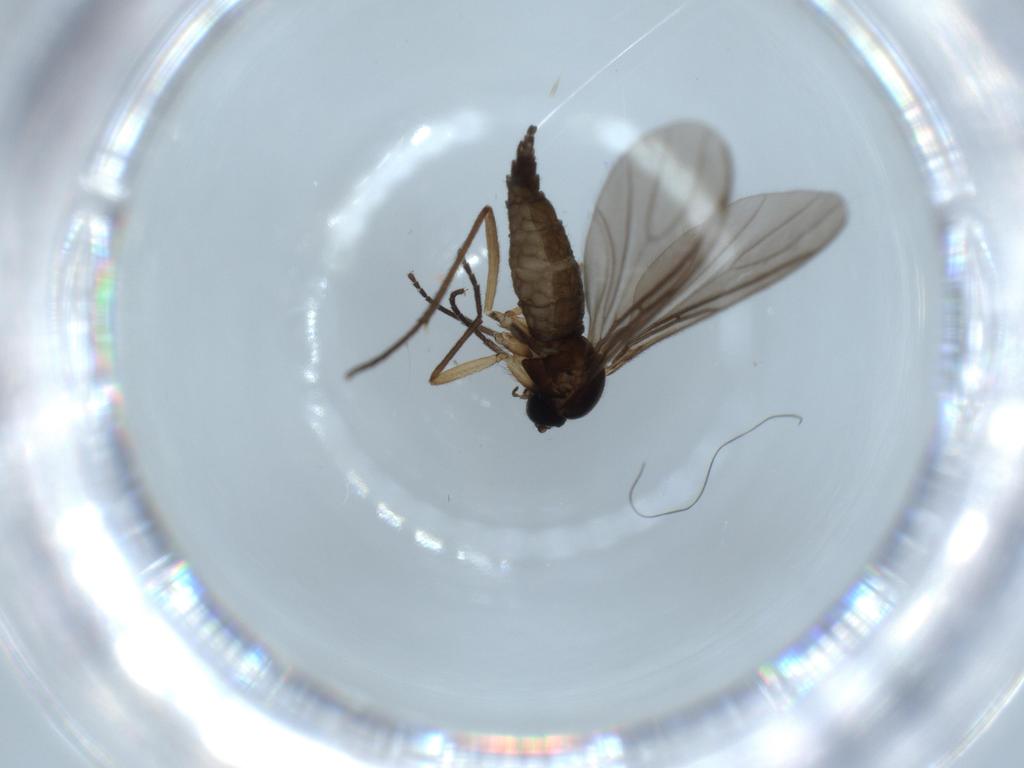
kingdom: Animalia
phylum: Arthropoda
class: Insecta
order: Diptera
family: Sciaridae
